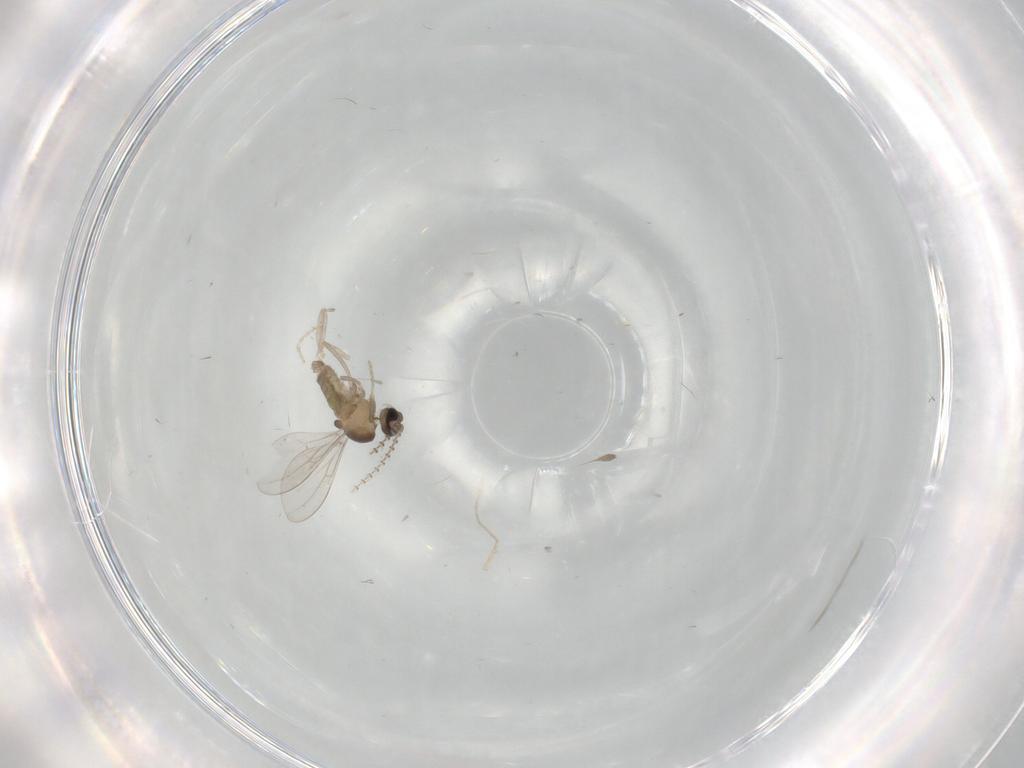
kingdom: Animalia
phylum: Arthropoda
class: Insecta
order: Diptera
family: Cecidomyiidae
